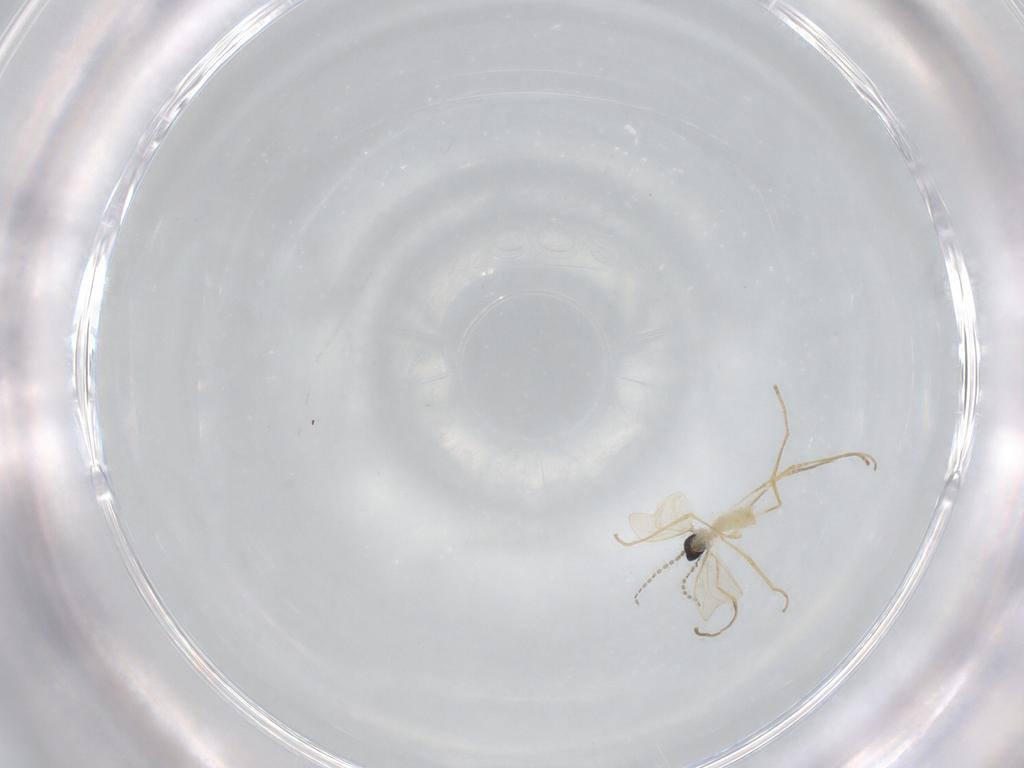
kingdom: Animalia
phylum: Arthropoda
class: Insecta
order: Diptera
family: Cecidomyiidae
